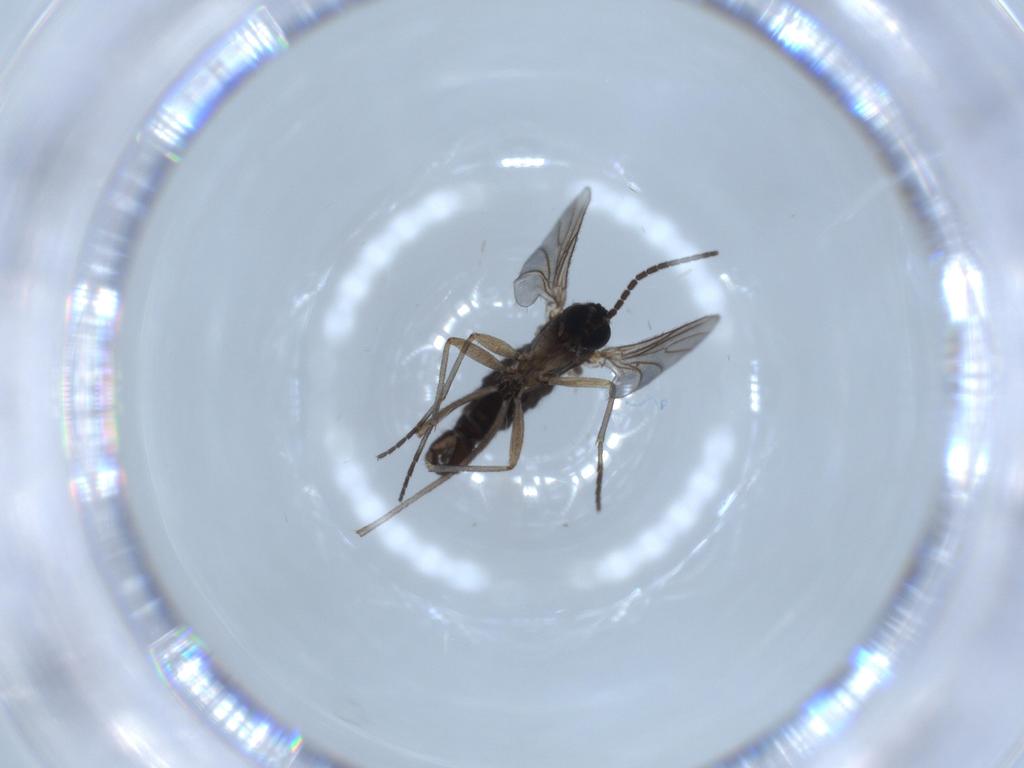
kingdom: Animalia
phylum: Arthropoda
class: Insecta
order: Diptera
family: Sciaridae
